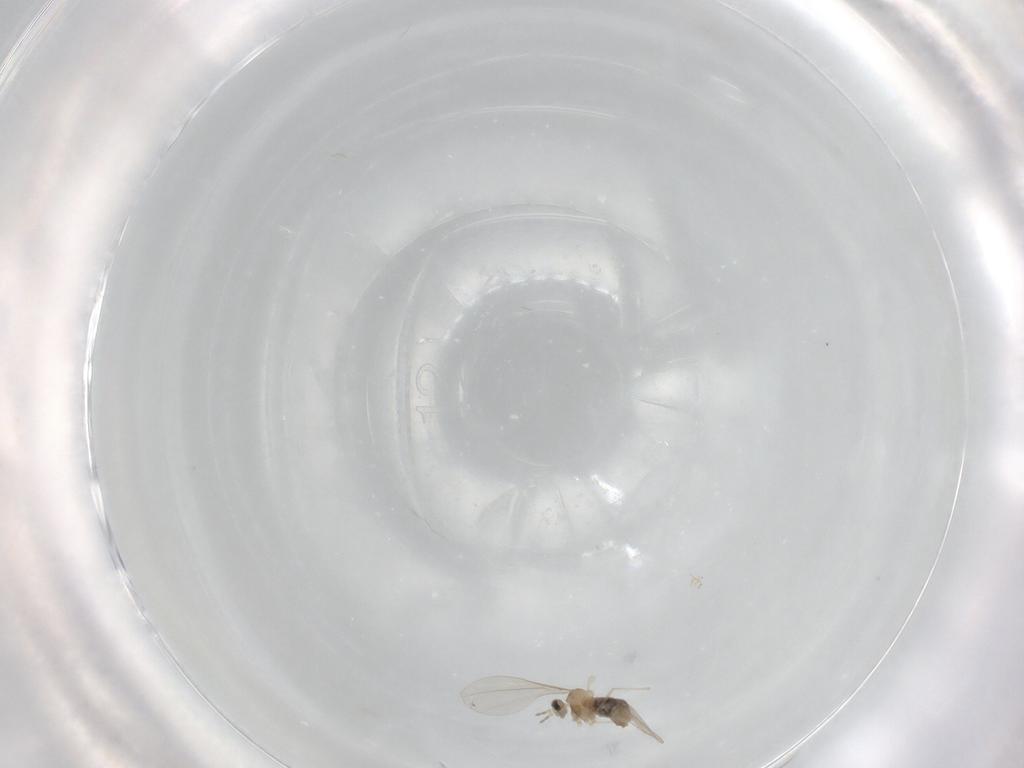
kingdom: Animalia
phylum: Arthropoda
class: Insecta
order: Diptera
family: Cecidomyiidae
